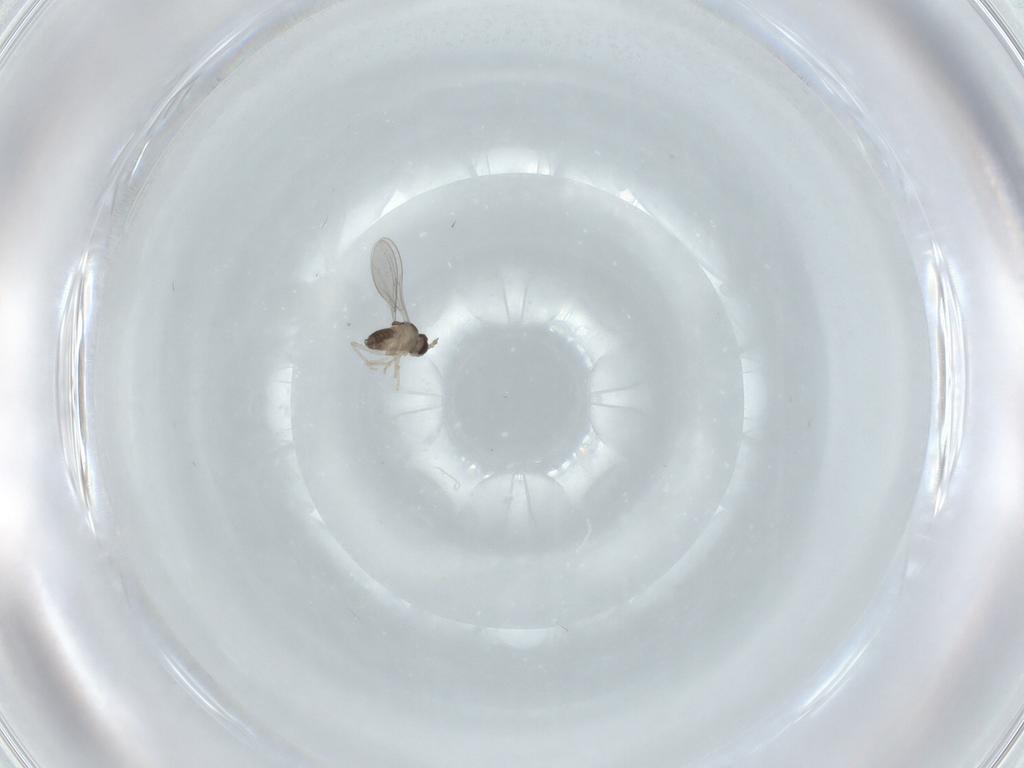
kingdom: Animalia
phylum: Arthropoda
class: Insecta
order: Diptera
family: Cecidomyiidae
